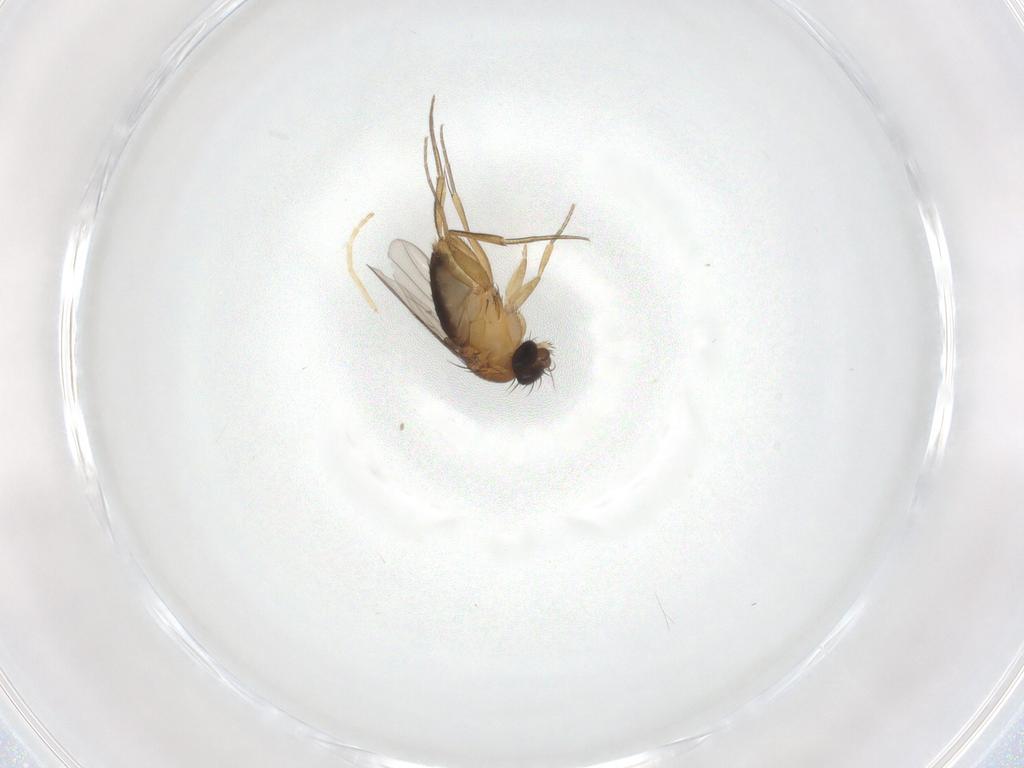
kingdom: Animalia
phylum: Arthropoda
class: Insecta
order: Diptera
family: Phoridae
